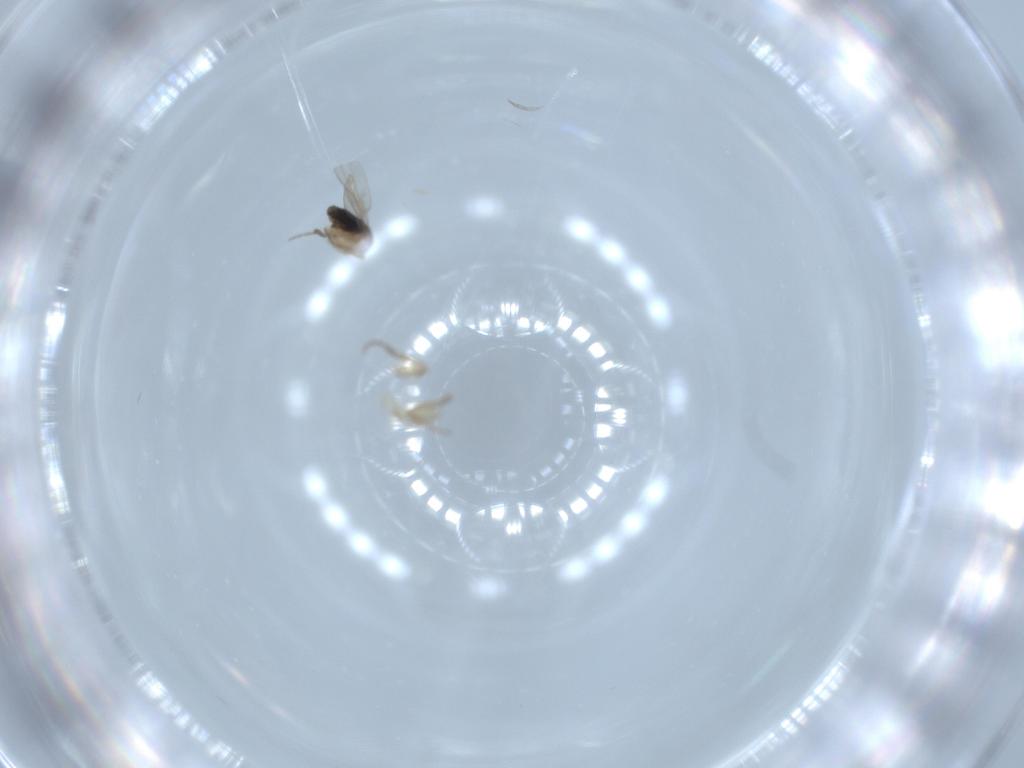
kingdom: Animalia
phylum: Arthropoda
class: Insecta
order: Diptera
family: Phoridae
